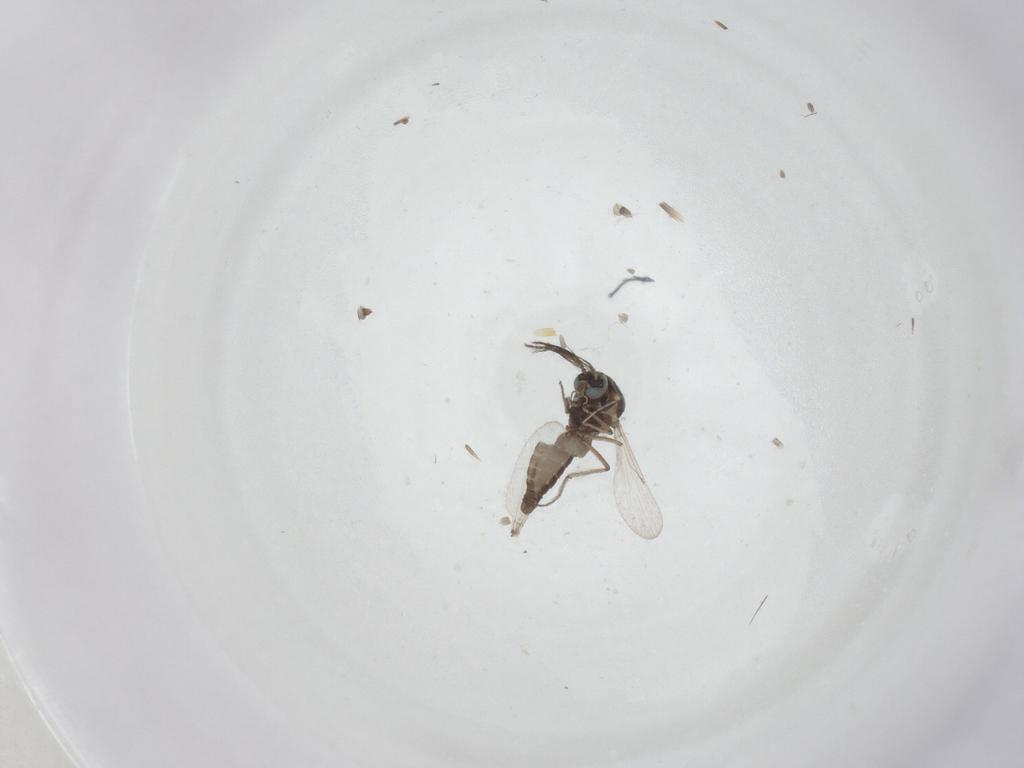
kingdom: Animalia
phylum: Arthropoda
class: Insecta
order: Diptera
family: Ceratopogonidae
